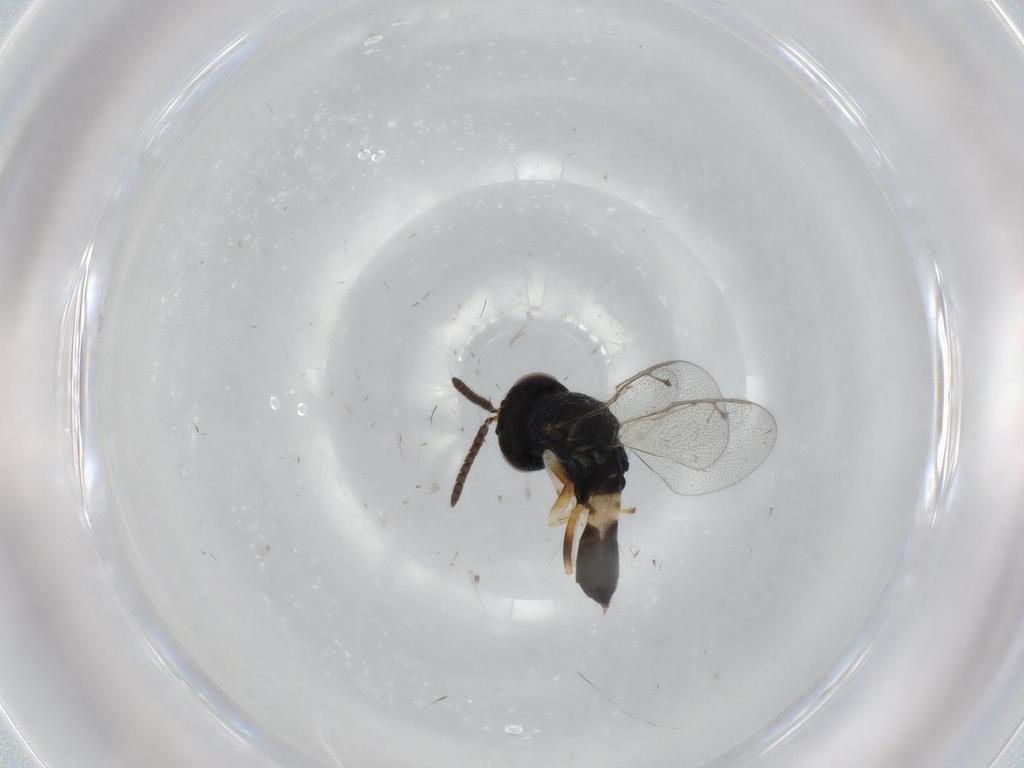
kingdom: Animalia
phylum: Arthropoda
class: Insecta
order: Hymenoptera
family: Pteromalidae
